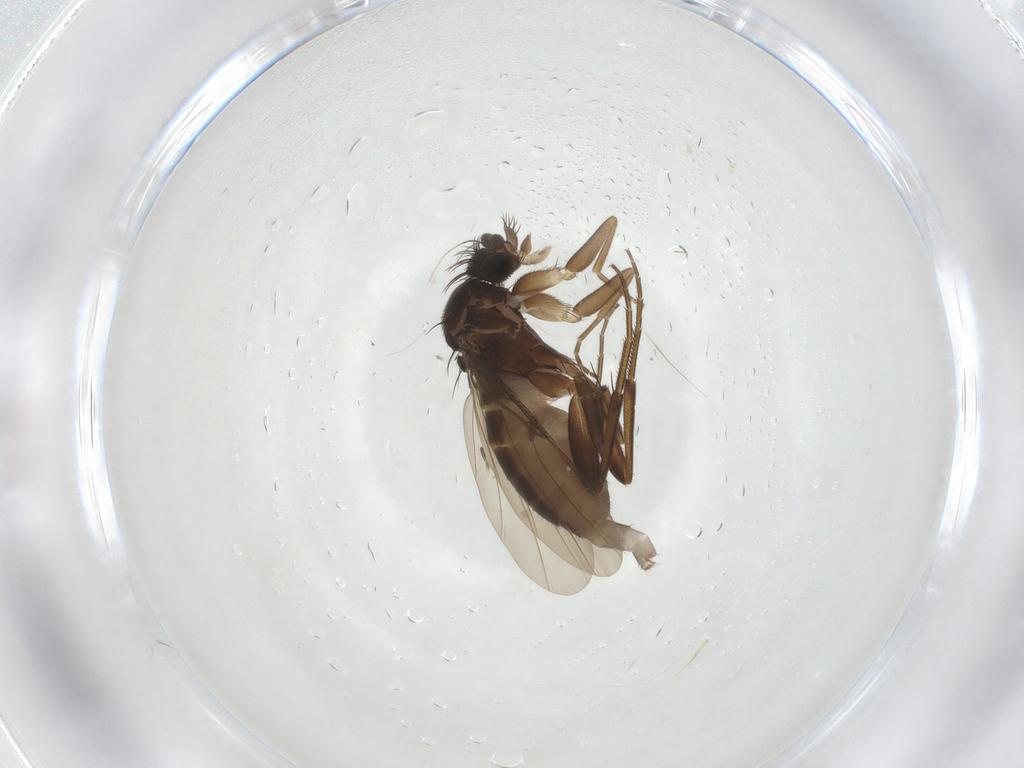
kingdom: Animalia
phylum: Arthropoda
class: Insecta
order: Diptera
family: Phoridae
